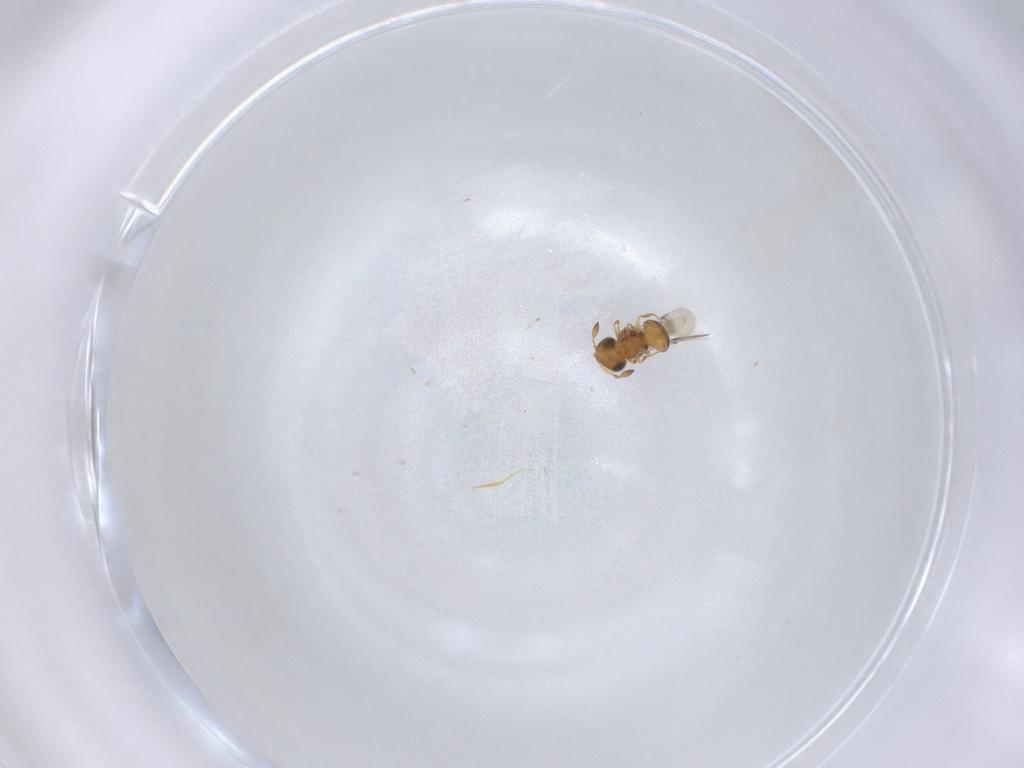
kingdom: Animalia
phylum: Arthropoda
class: Insecta
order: Hymenoptera
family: Scelionidae
